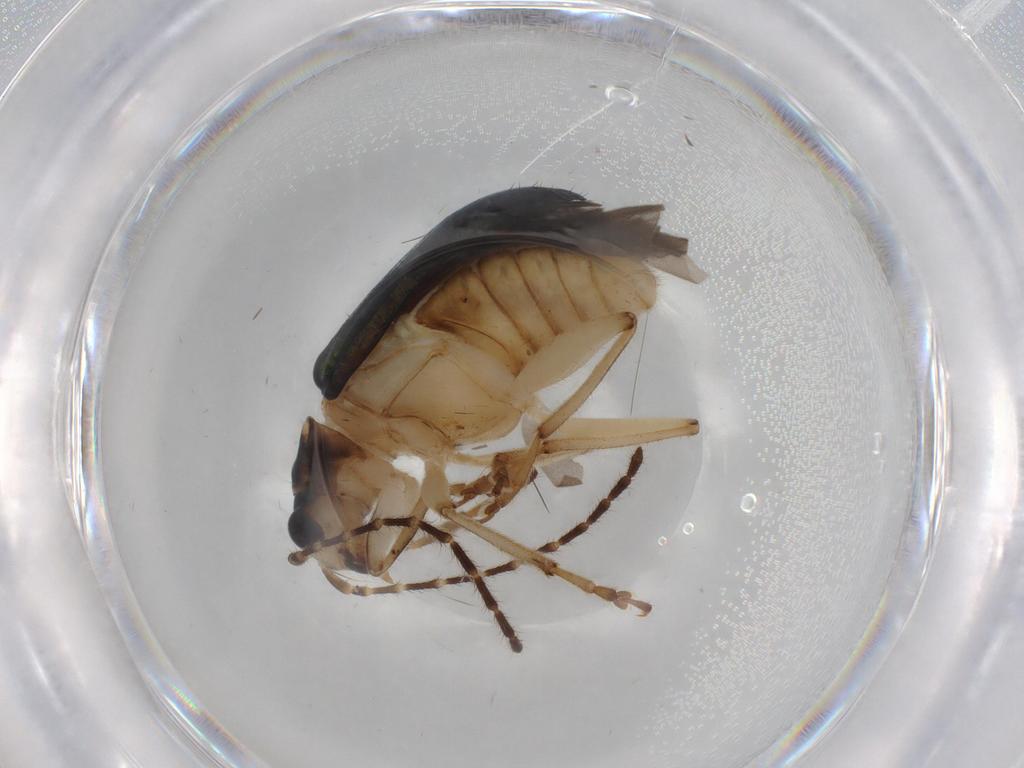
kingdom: Animalia
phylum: Arthropoda
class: Insecta
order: Coleoptera
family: Chrysomelidae
